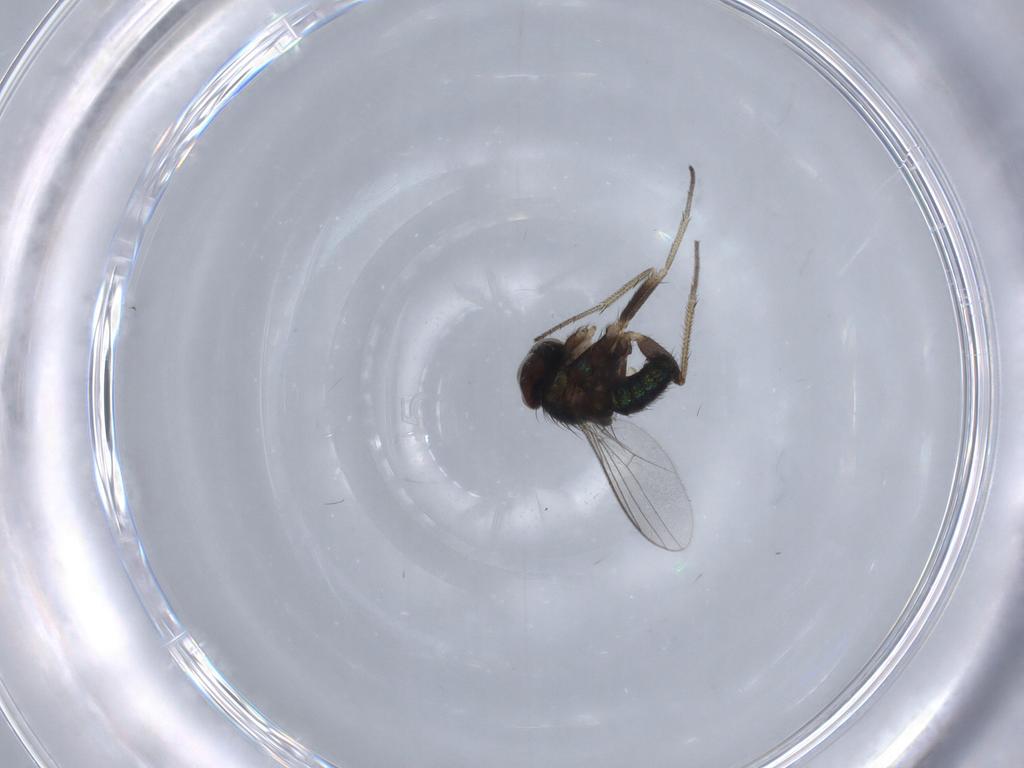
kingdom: Animalia
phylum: Arthropoda
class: Insecta
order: Diptera
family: Dolichopodidae
